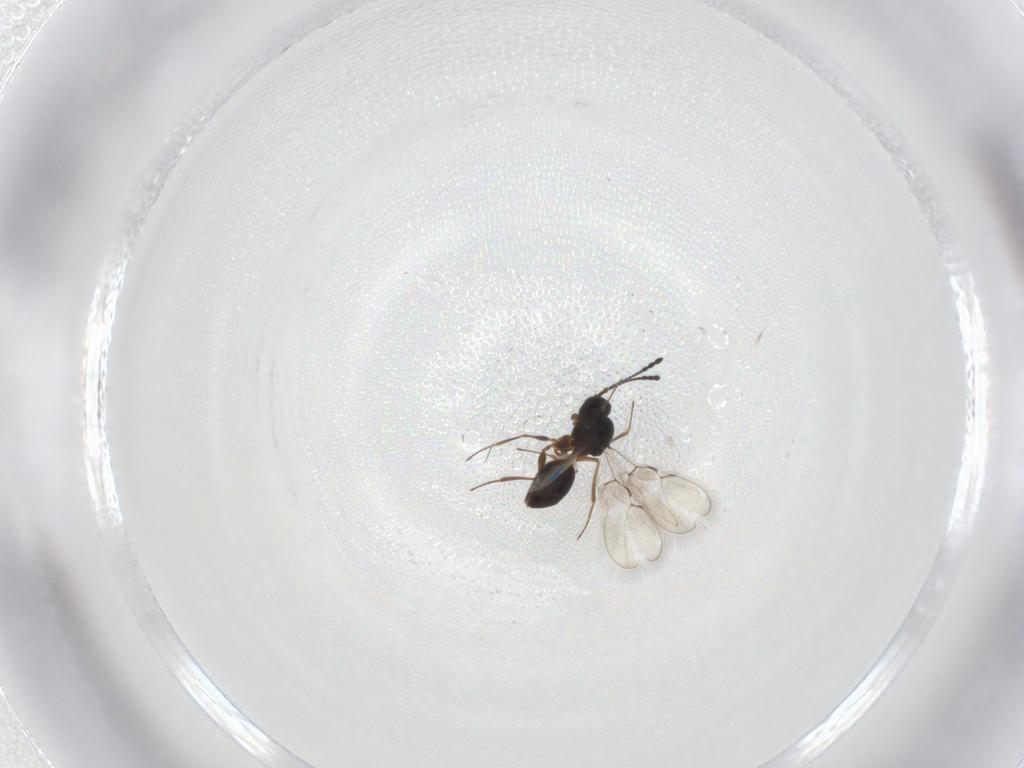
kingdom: Animalia
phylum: Arthropoda
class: Insecta
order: Hymenoptera
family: Figitidae
